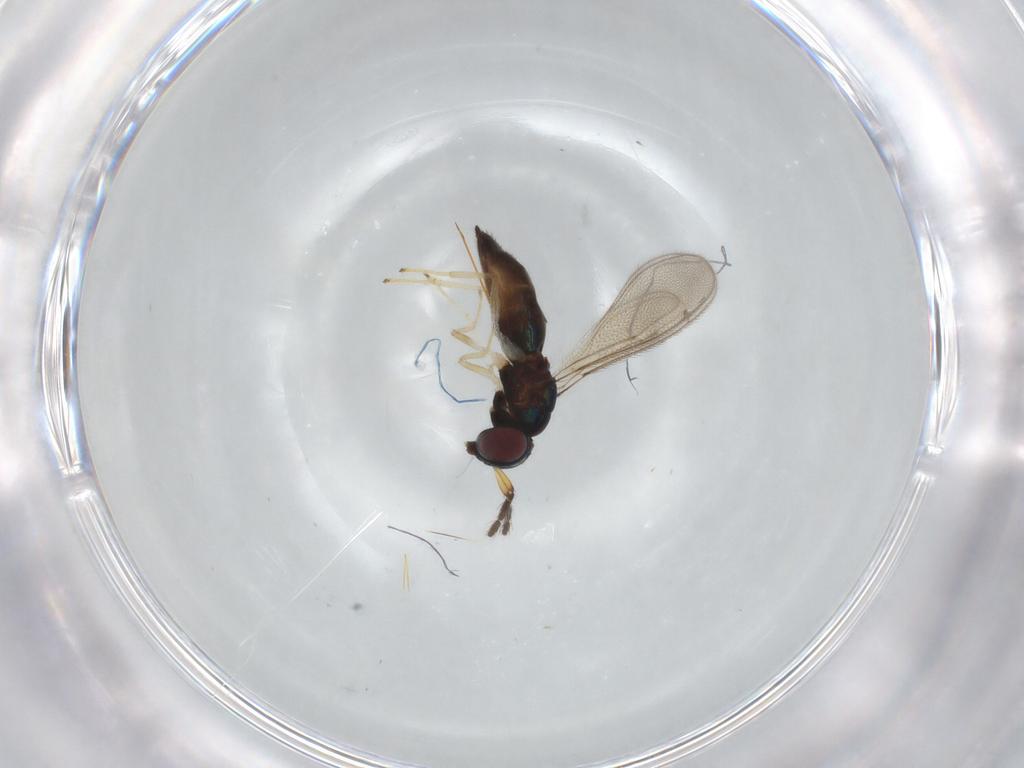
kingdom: Animalia
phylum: Arthropoda
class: Insecta
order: Hymenoptera
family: Eulophidae
